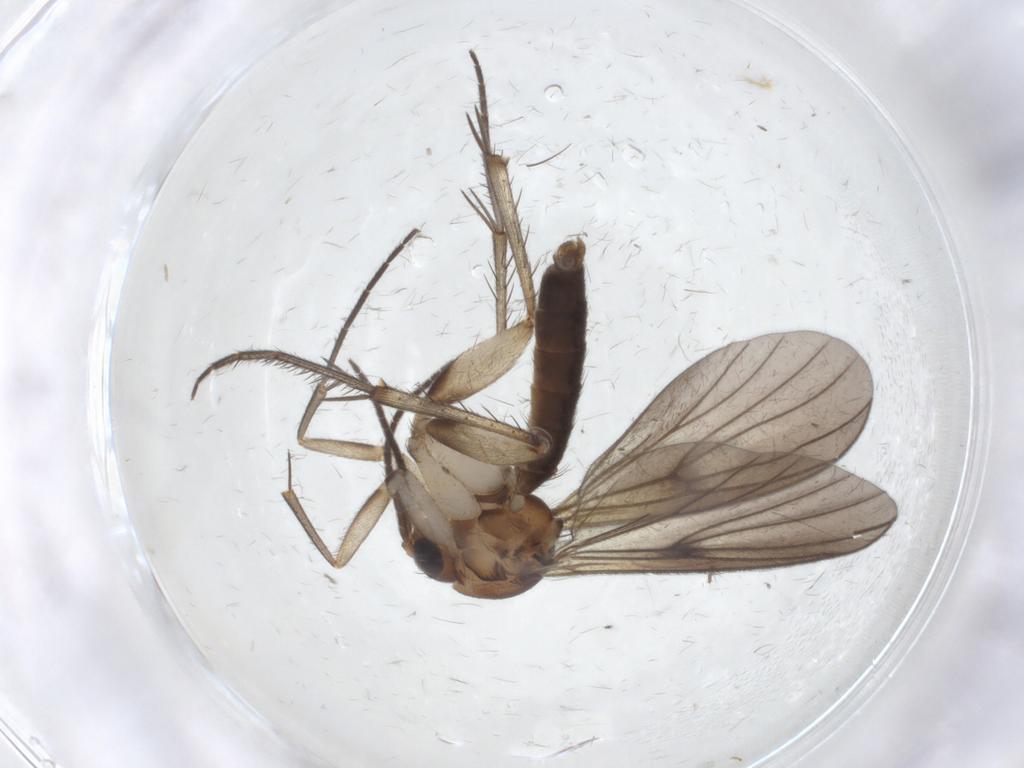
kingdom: Animalia
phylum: Arthropoda
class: Insecta
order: Diptera
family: Mycetophilidae
